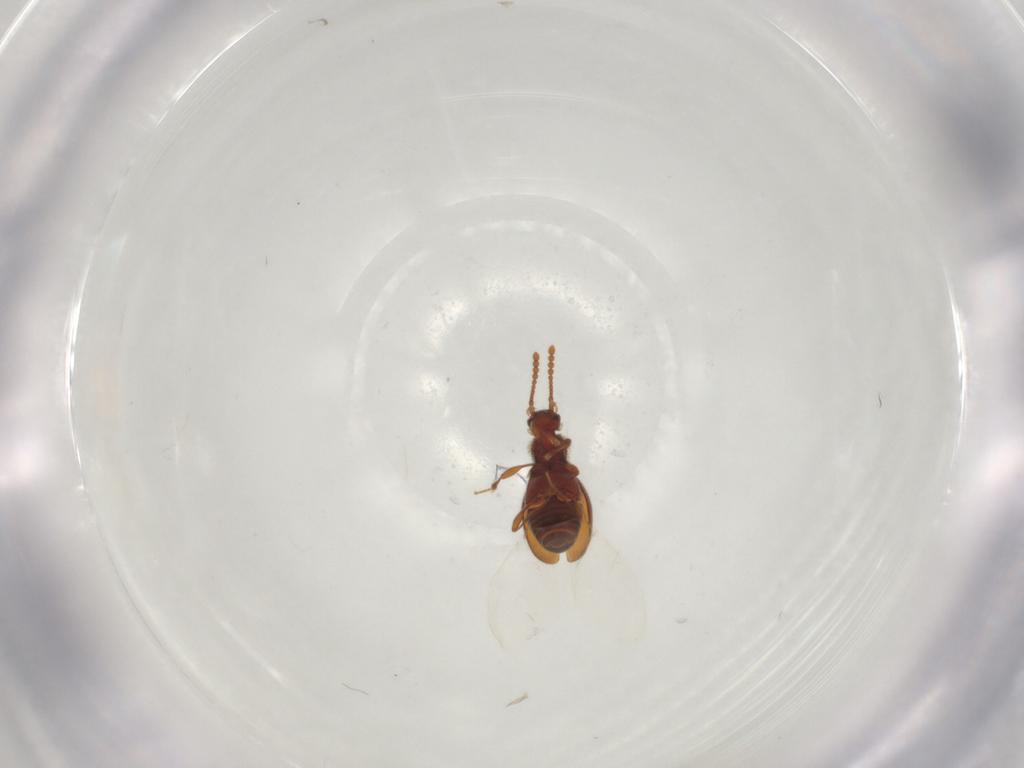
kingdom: Animalia
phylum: Arthropoda
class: Insecta
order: Coleoptera
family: Staphylinidae
